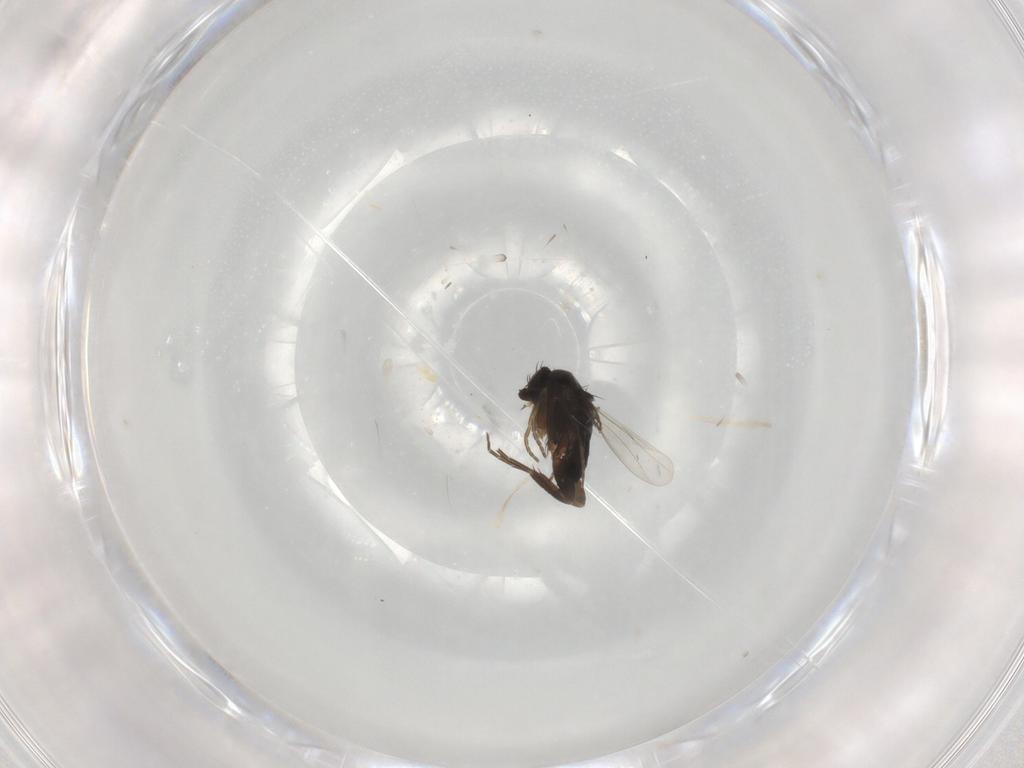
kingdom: Animalia
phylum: Arthropoda
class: Insecta
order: Diptera
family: Phoridae
